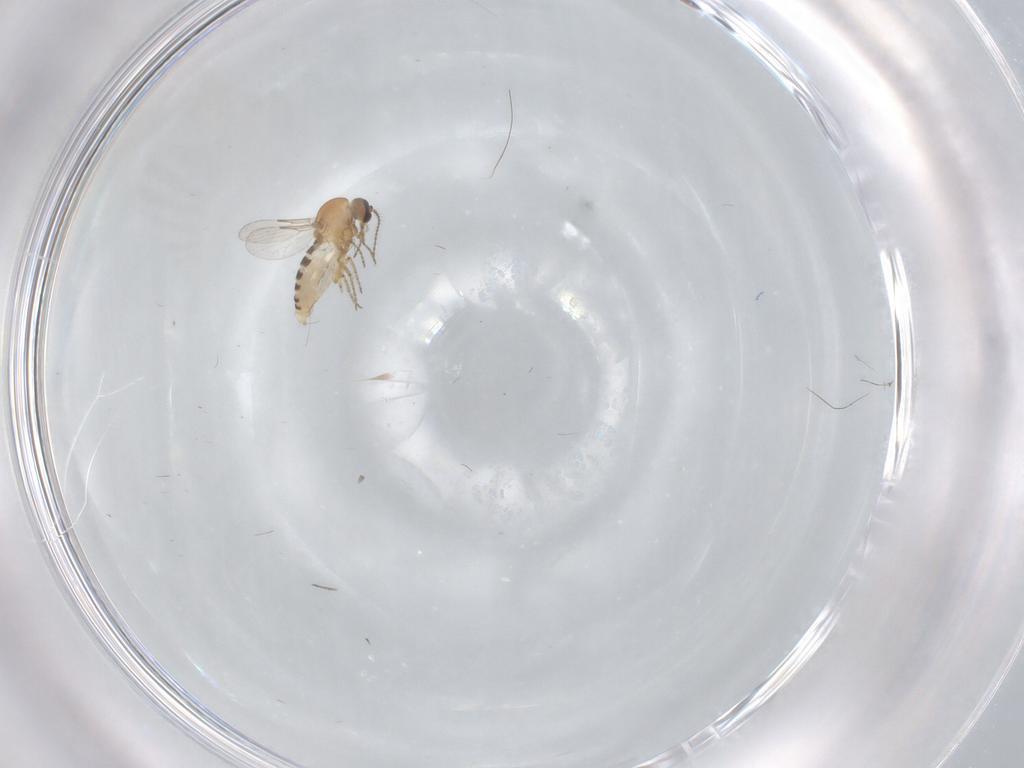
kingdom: Animalia
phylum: Arthropoda
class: Insecta
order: Diptera
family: Ceratopogonidae
